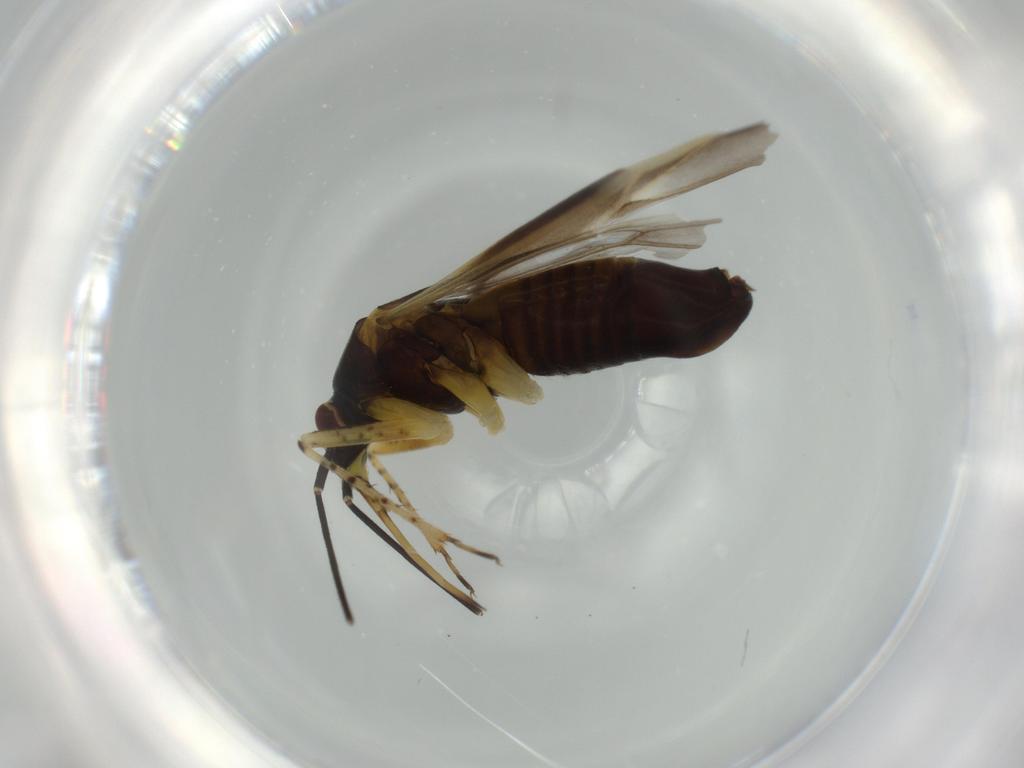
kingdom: Animalia
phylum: Arthropoda
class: Insecta
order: Hemiptera
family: Miridae
